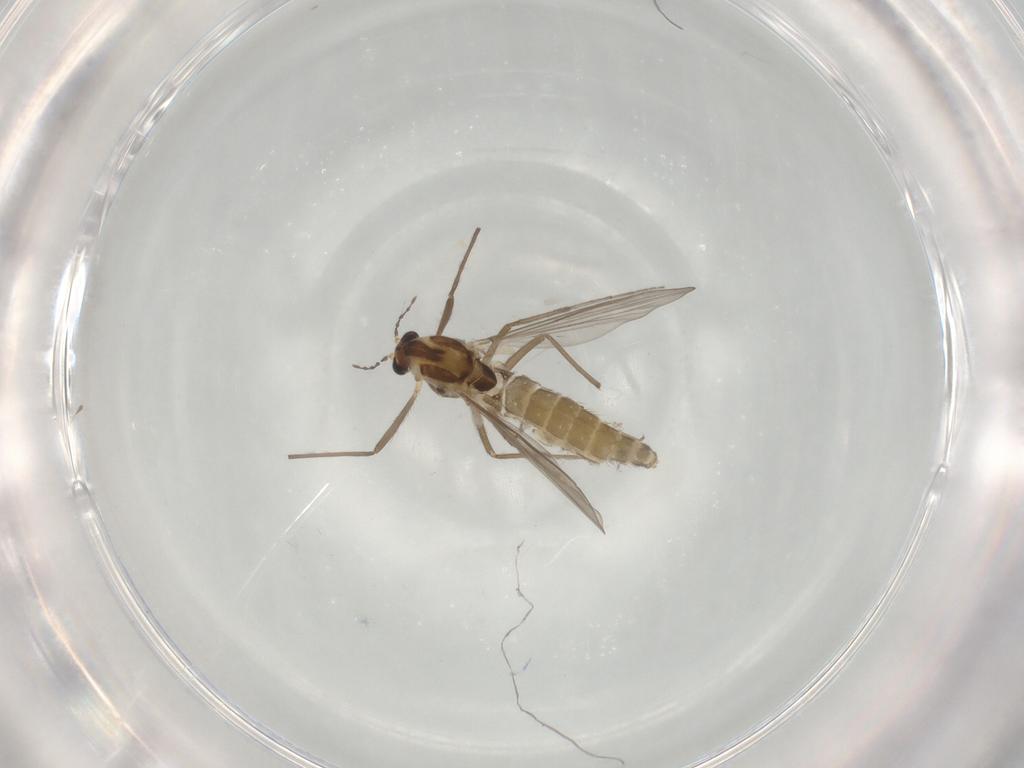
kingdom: Animalia
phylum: Arthropoda
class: Insecta
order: Diptera
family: Chironomidae
